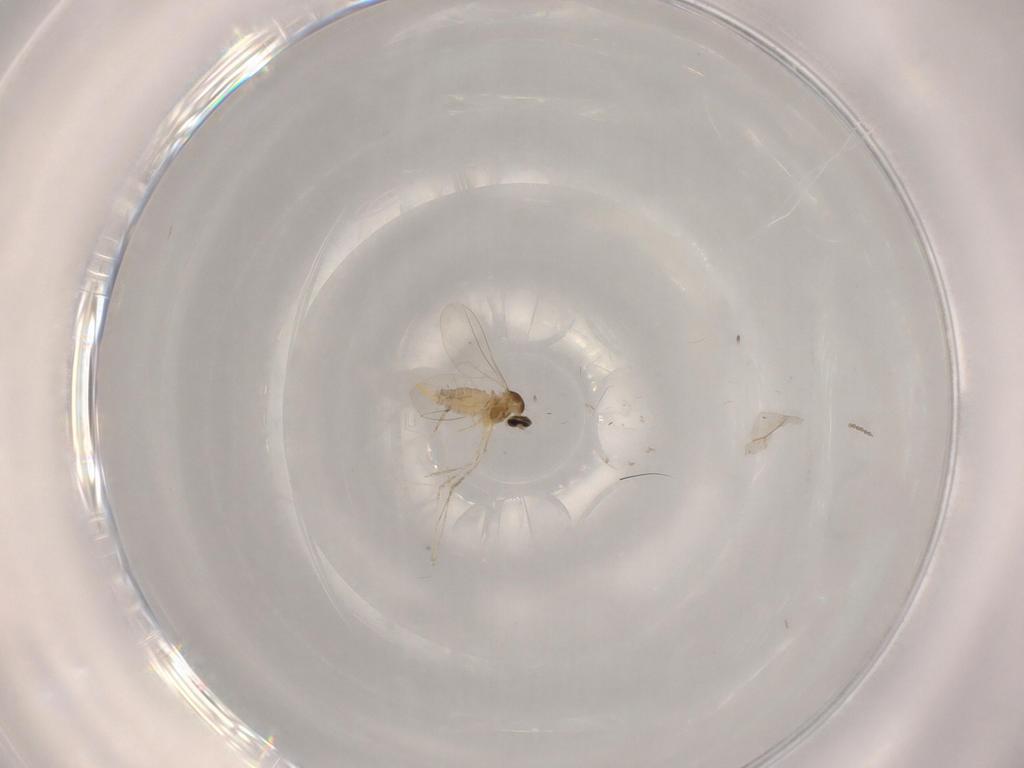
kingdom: Animalia
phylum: Arthropoda
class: Insecta
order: Diptera
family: Cecidomyiidae
